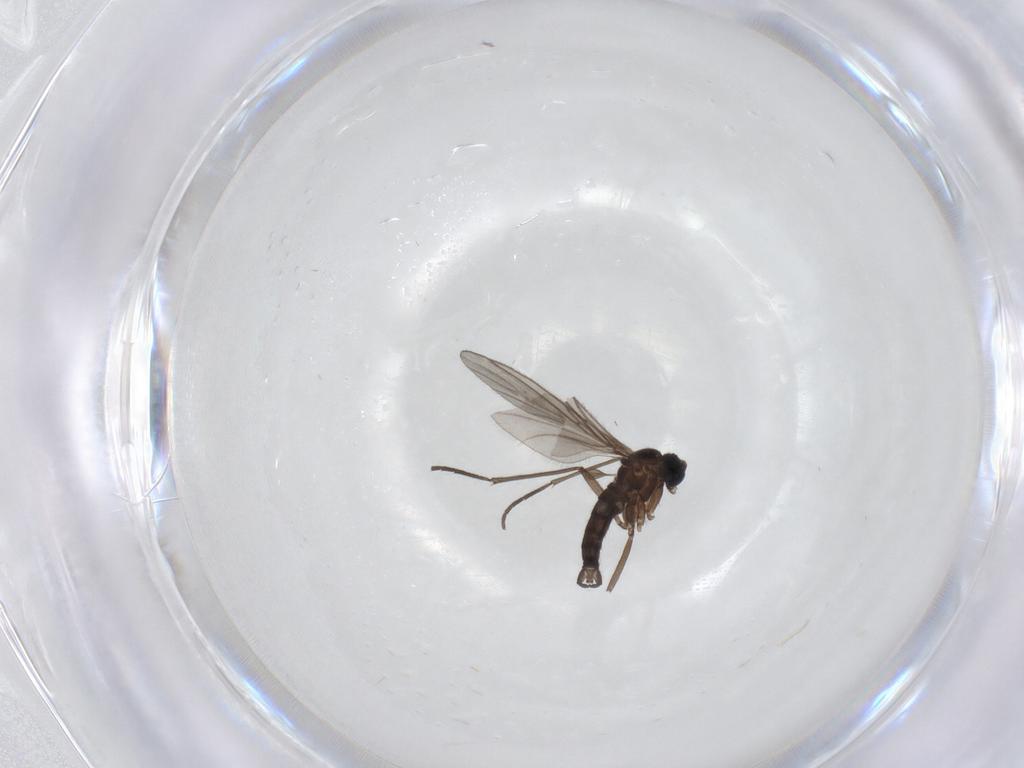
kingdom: Animalia
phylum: Arthropoda
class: Insecta
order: Diptera
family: Sciaridae
